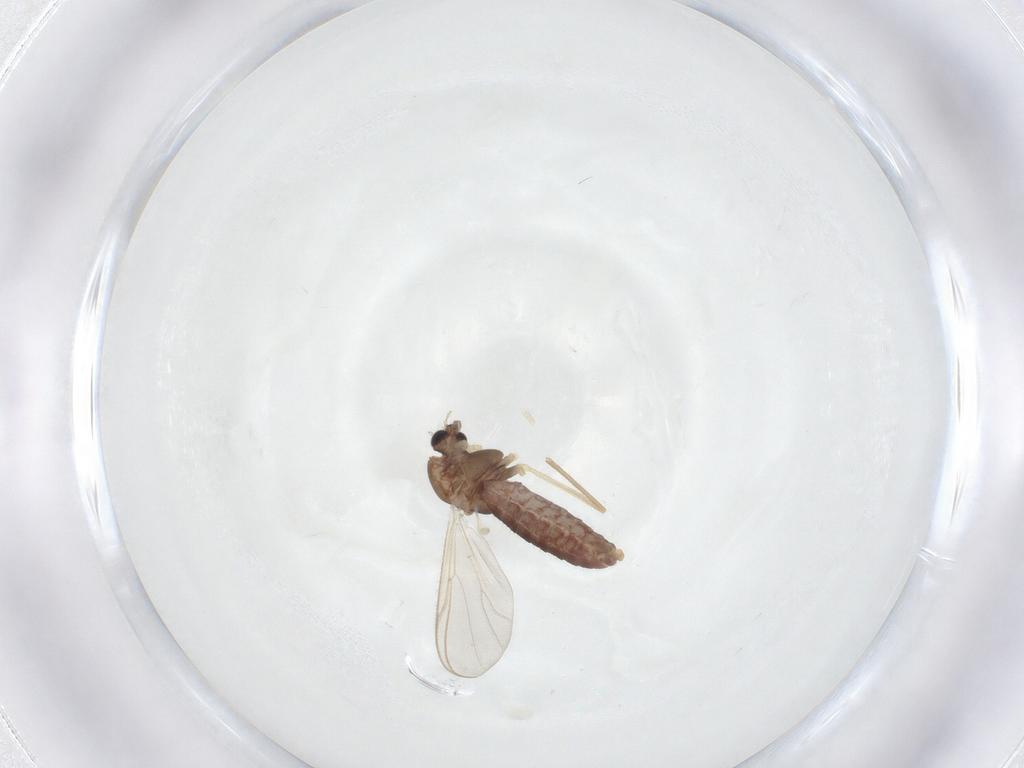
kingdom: Animalia
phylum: Arthropoda
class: Insecta
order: Diptera
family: Chironomidae
